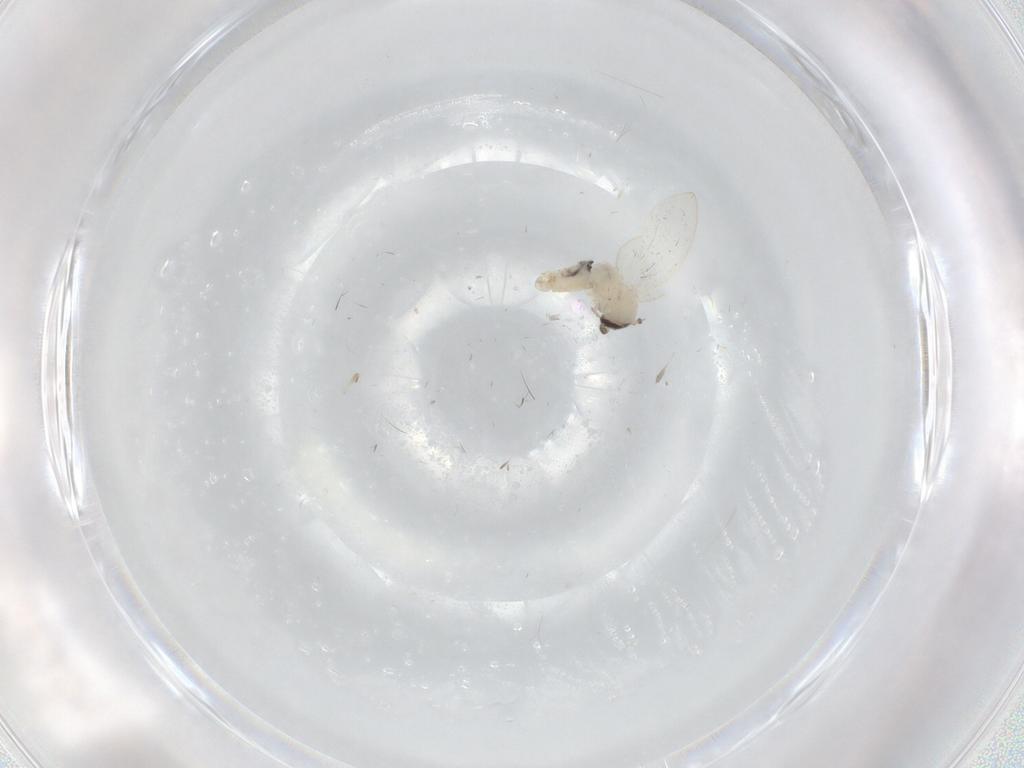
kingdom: Animalia
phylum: Arthropoda
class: Insecta
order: Diptera
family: Psychodidae
